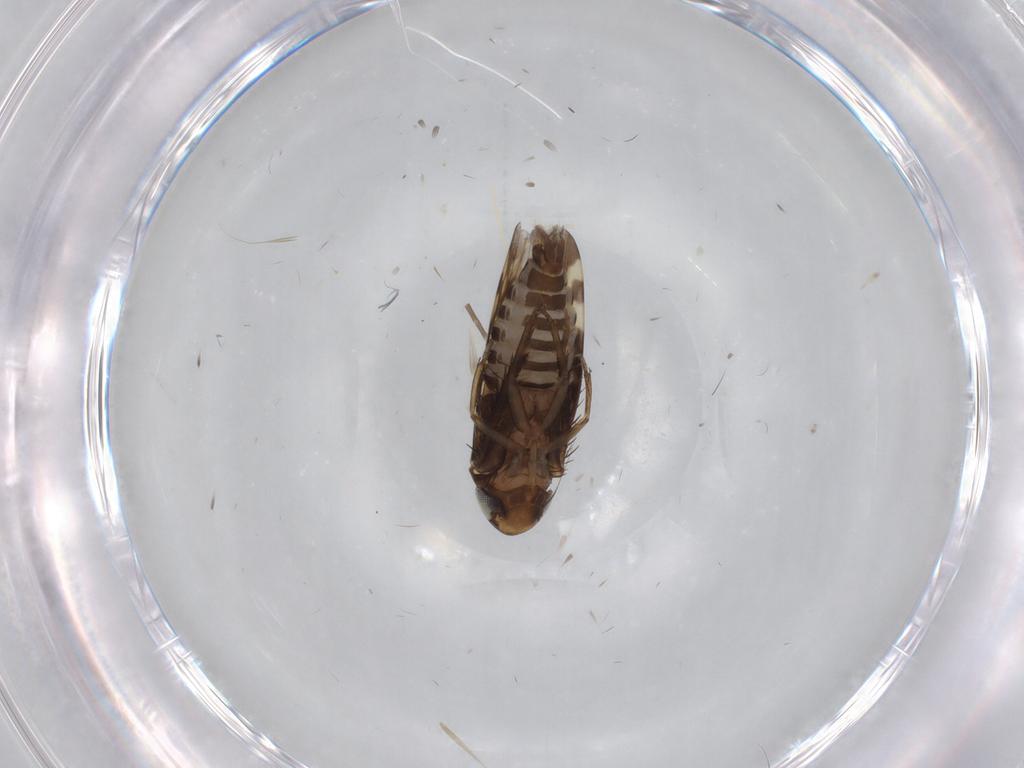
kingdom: Animalia
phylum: Arthropoda
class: Insecta
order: Hemiptera
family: Cicadellidae
